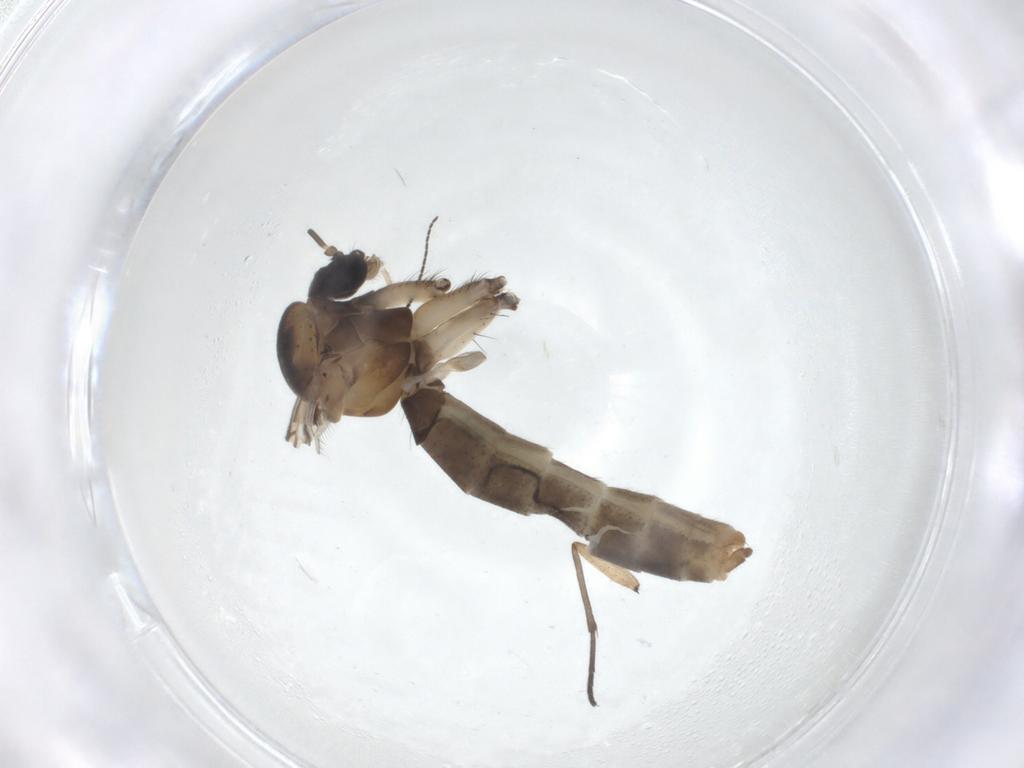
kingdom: Animalia
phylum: Arthropoda
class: Insecta
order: Diptera
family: Mycetophilidae
